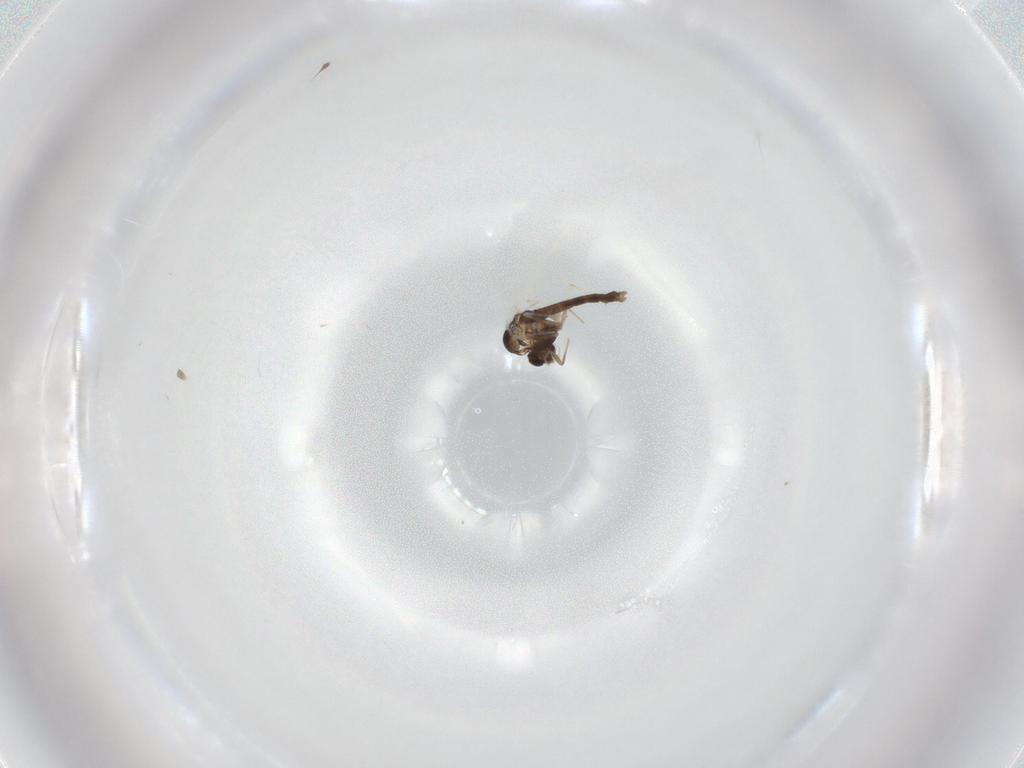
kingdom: Animalia
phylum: Arthropoda
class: Insecta
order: Diptera
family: Chironomidae
